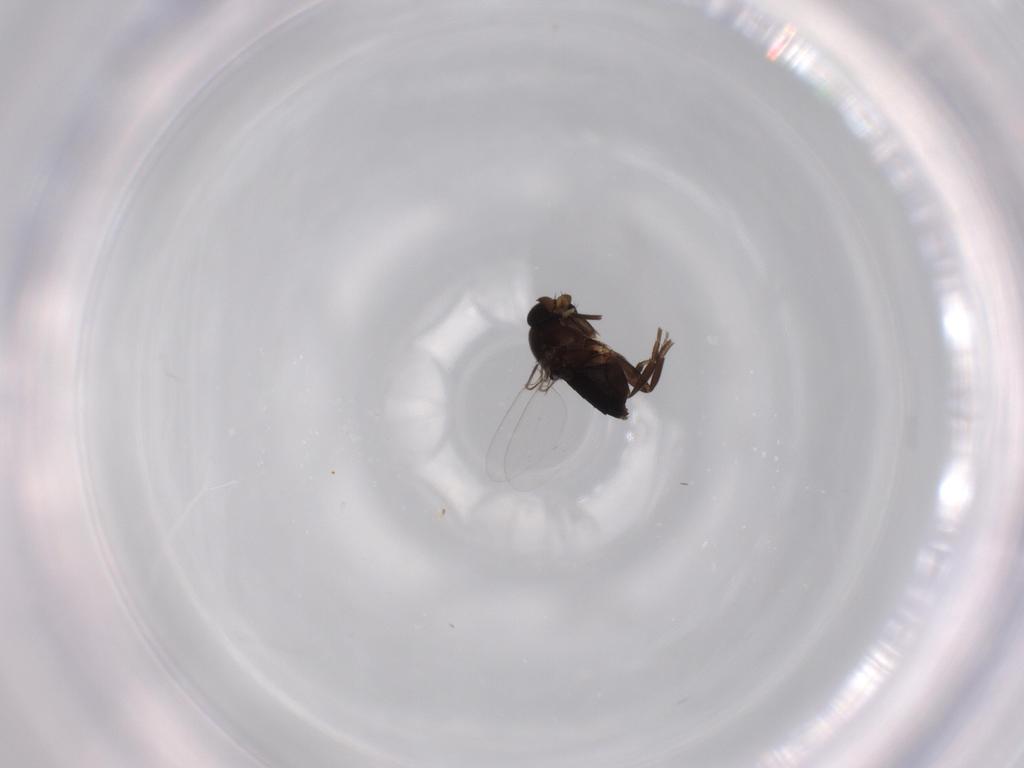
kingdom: Animalia
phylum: Arthropoda
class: Insecta
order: Diptera
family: Phoridae
